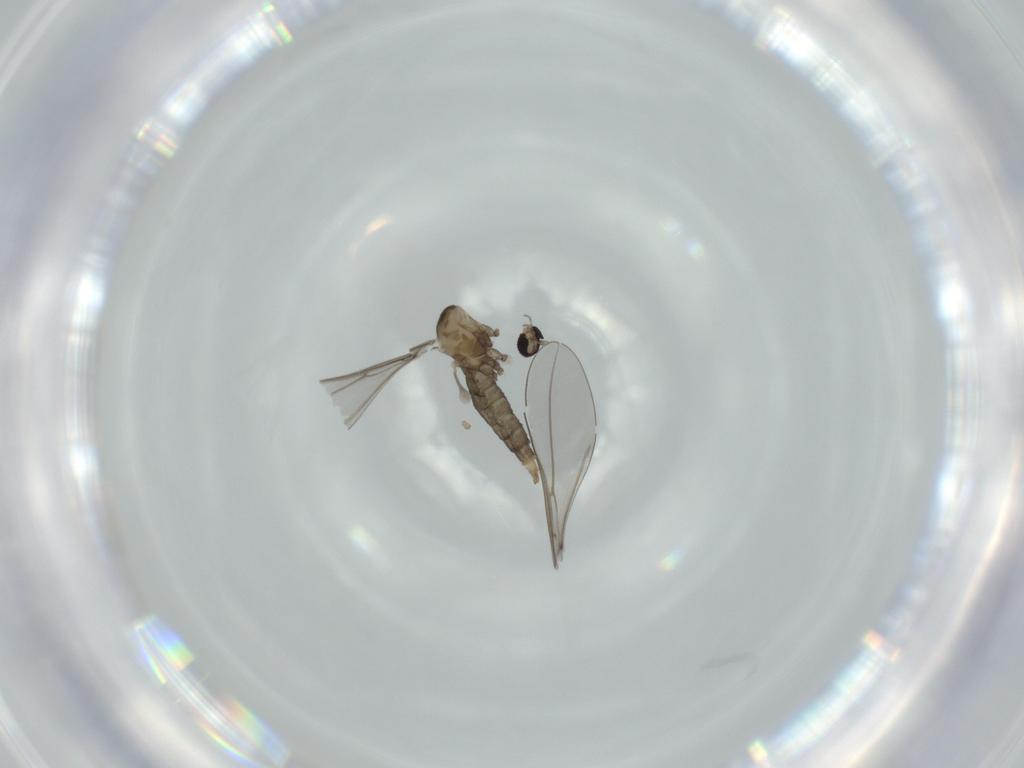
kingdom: Animalia
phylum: Arthropoda
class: Insecta
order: Diptera
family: Cecidomyiidae
